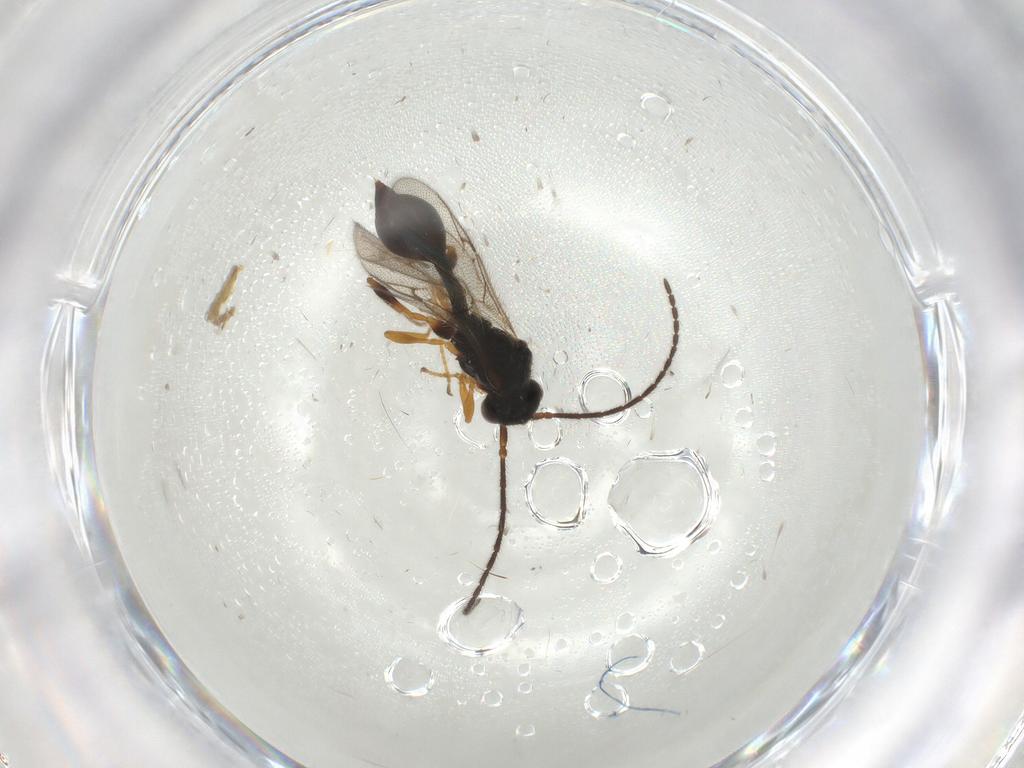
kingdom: Animalia
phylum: Arthropoda
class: Insecta
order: Hymenoptera
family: Diapriidae
